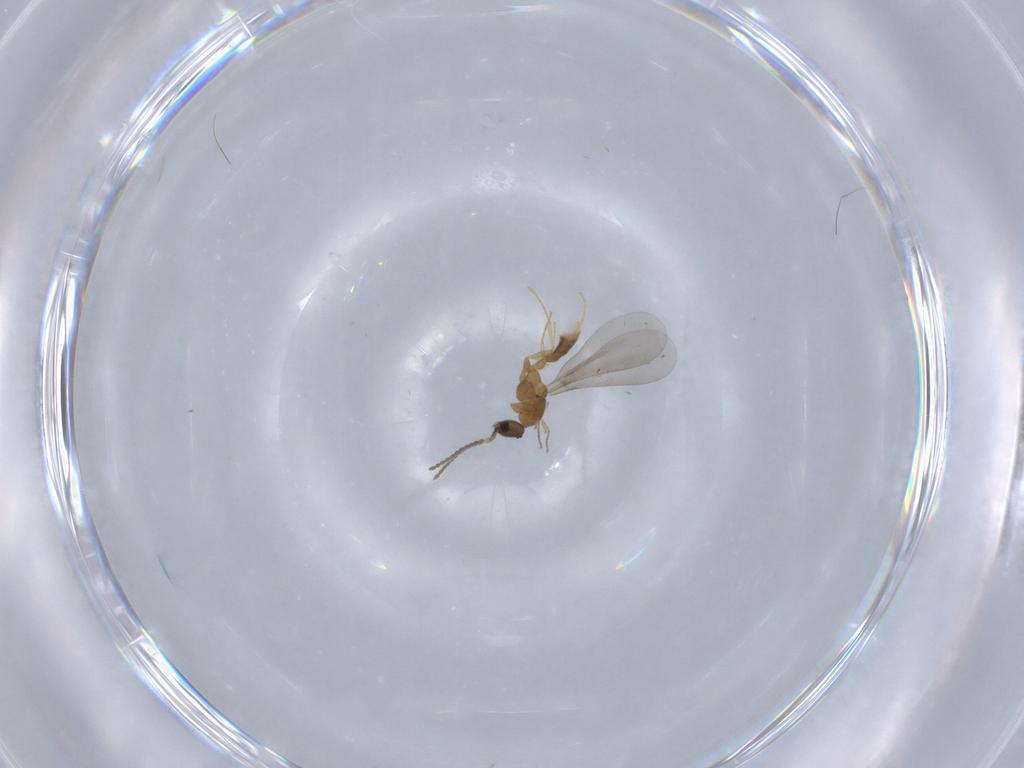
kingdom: Animalia
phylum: Arthropoda
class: Insecta
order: Hymenoptera
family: Formicidae
